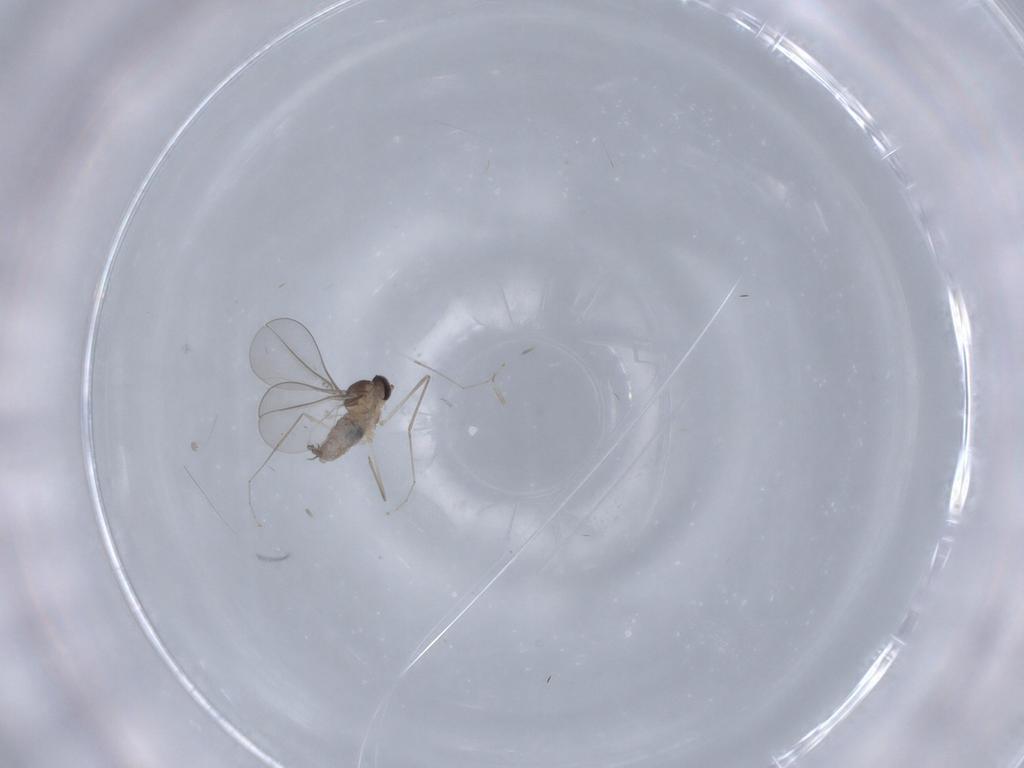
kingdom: Animalia
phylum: Arthropoda
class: Insecta
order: Diptera
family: Cecidomyiidae
